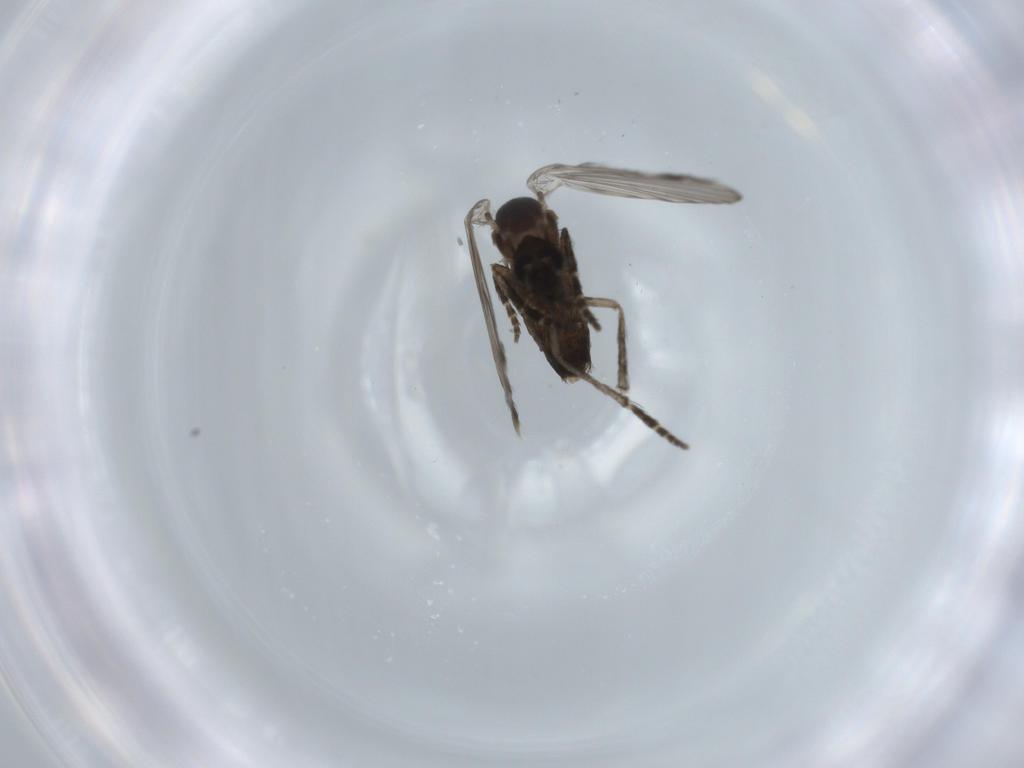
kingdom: Animalia
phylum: Arthropoda
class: Insecta
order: Diptera
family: Psychodidae
